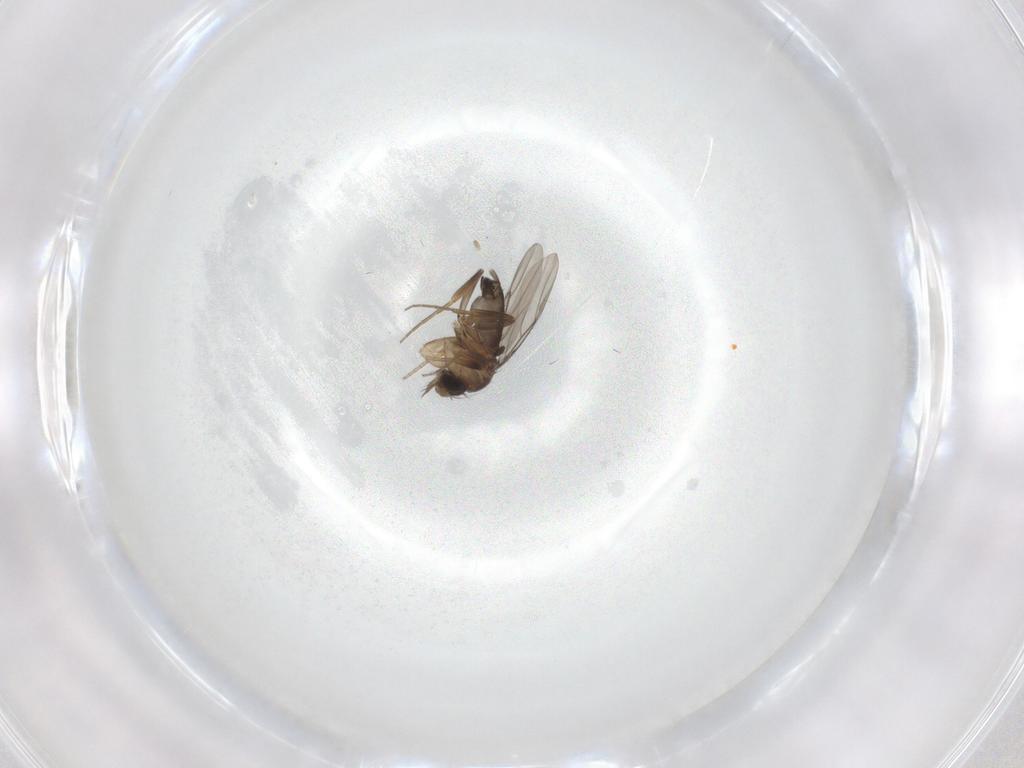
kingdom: Animalia
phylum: Arthropoda
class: Insecta
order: Diptera
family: Phoridae
